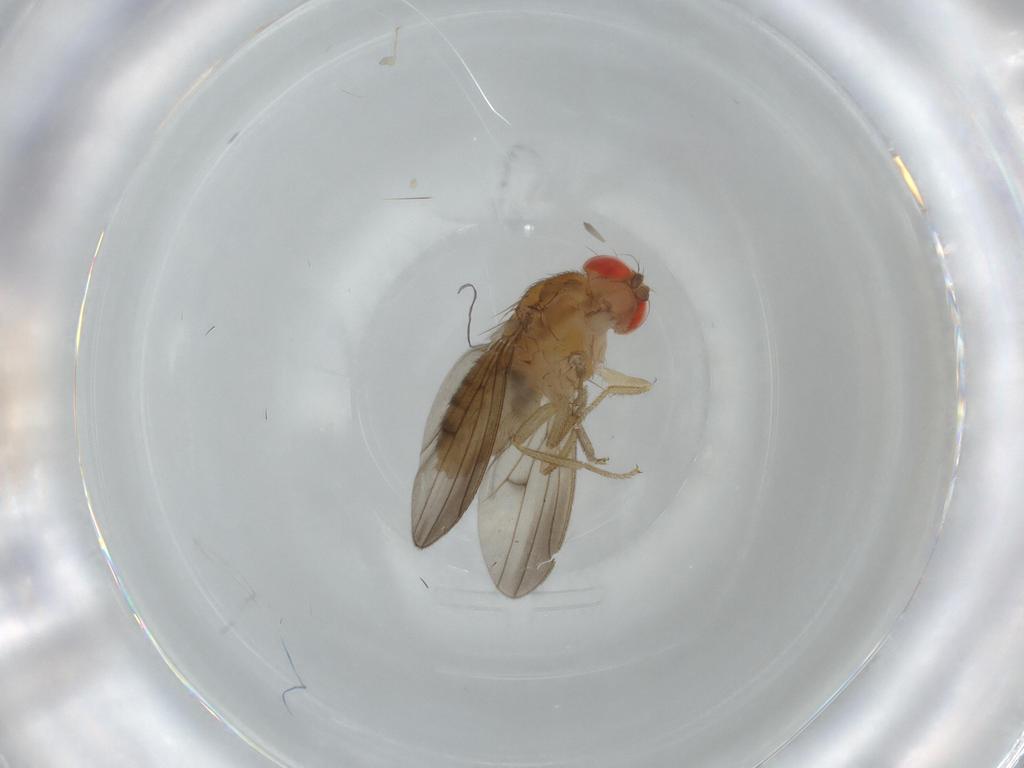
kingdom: Animalia
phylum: Arthropoda
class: Insecta
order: Diptera
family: Drosophilidae
